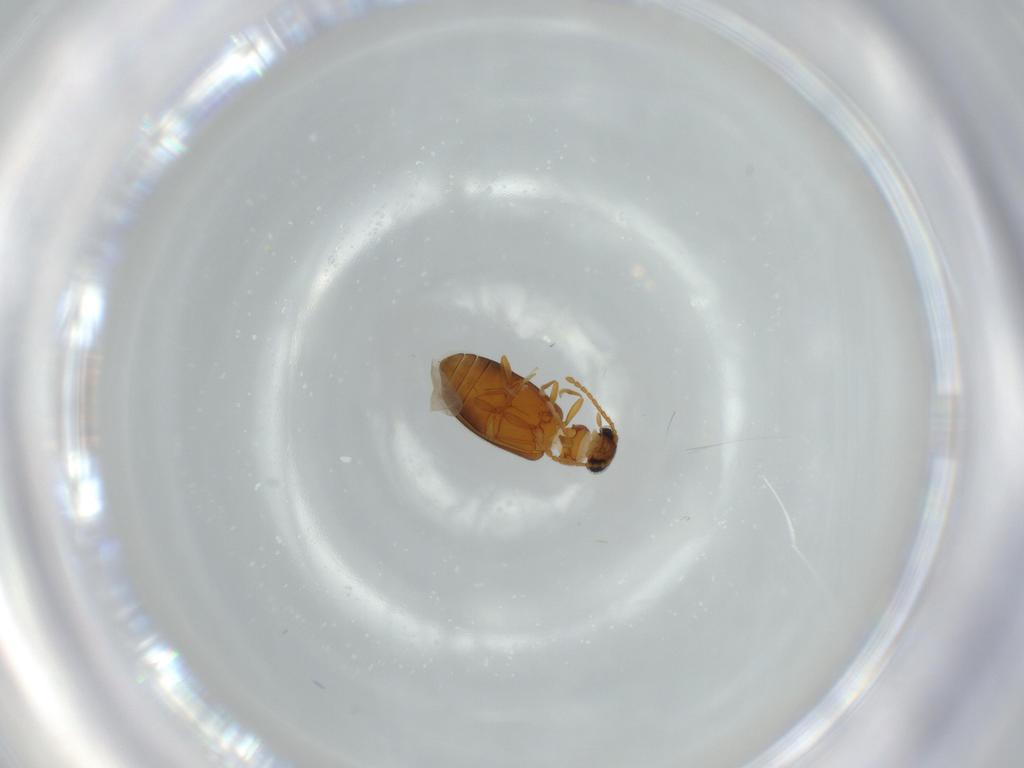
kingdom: Animalia
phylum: Arthropoda
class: Insecta
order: Coleoptera
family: Aderidae
